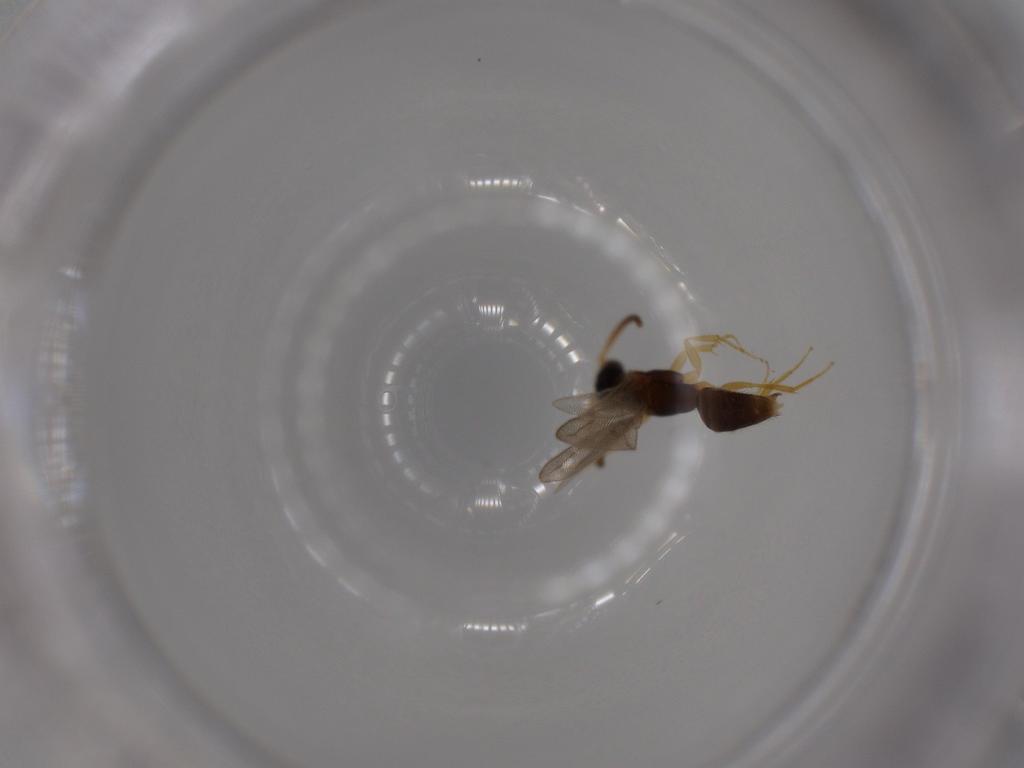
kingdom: Animalia
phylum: Arthropoda
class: Insecta
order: Hymenoptera
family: Bethylidae
